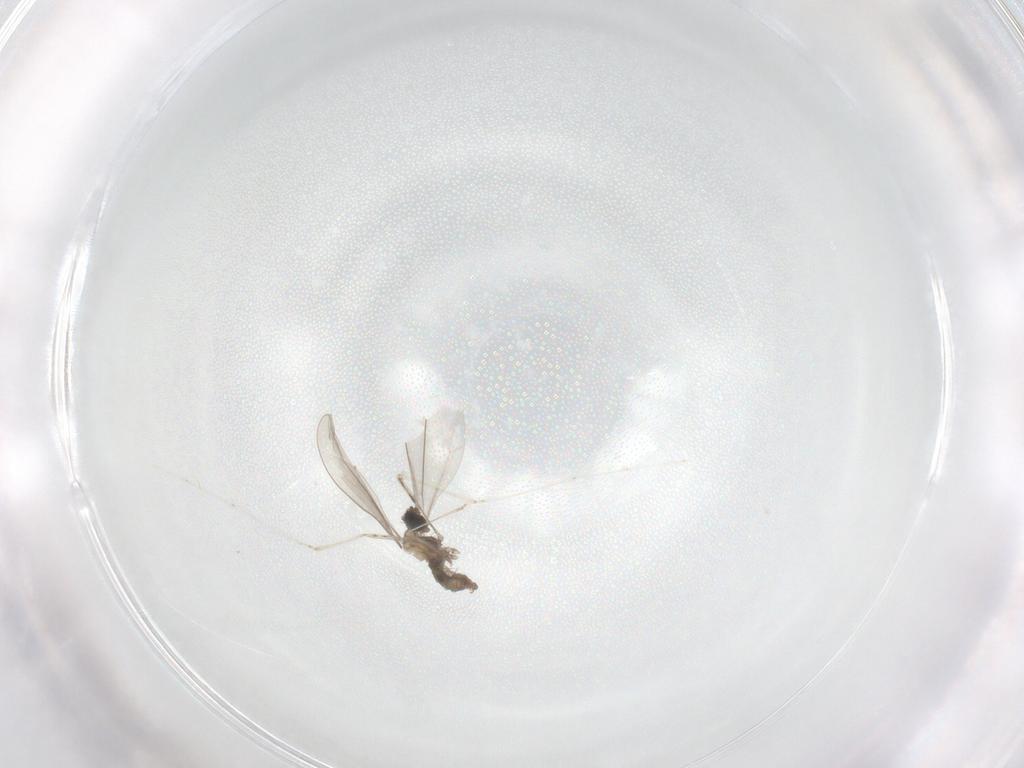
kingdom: Animalia
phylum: Arthropoda
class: Insecta
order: Diptera
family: Cecidomyiidae
